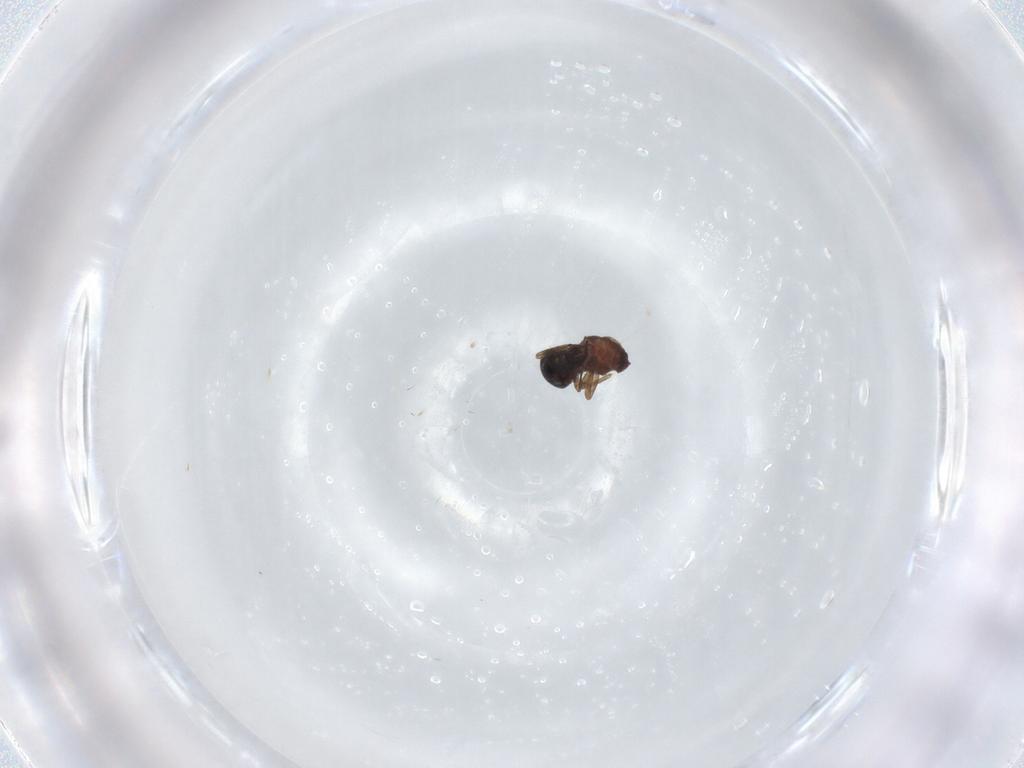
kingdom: Animalia
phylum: Arthropoda
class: Insecta
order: Diptera
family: Ceratopogonidae
